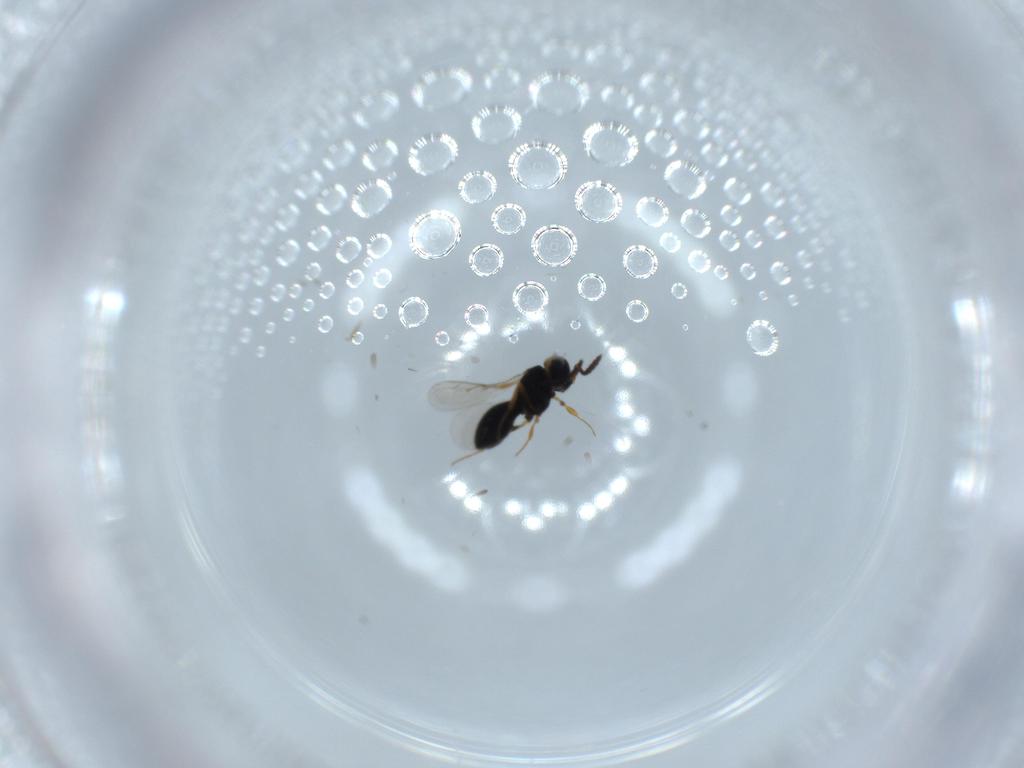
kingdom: Animalia
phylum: Arthropoda
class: Insecta
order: Hymenoptera
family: Scelionidae
